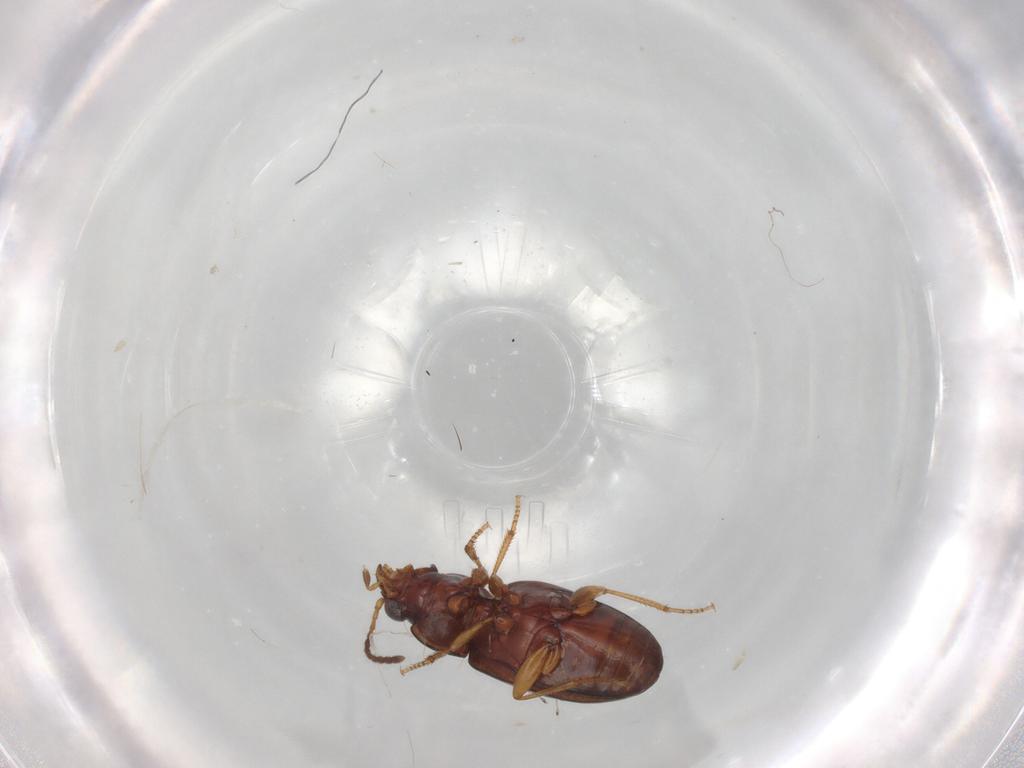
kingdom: Animalia
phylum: Arthropoda
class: Insecta
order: Coleoptera
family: Carabidae
